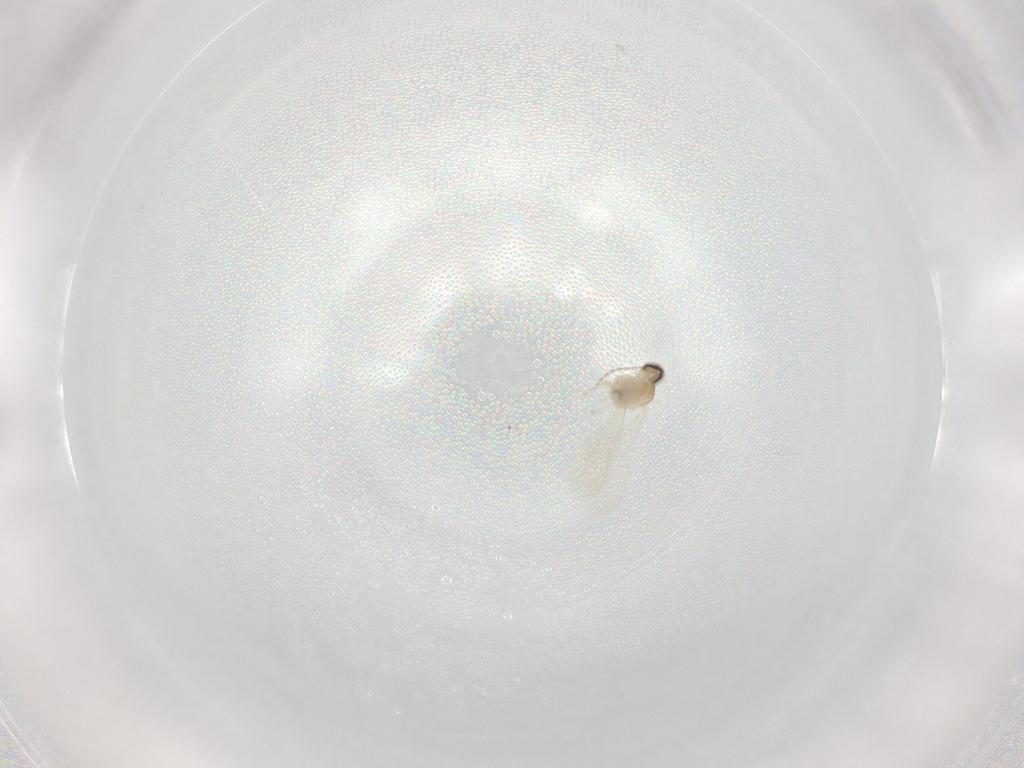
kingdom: Animalia
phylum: Arthropoda
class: Insecta
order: Diptera
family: Cecidomyiidae
